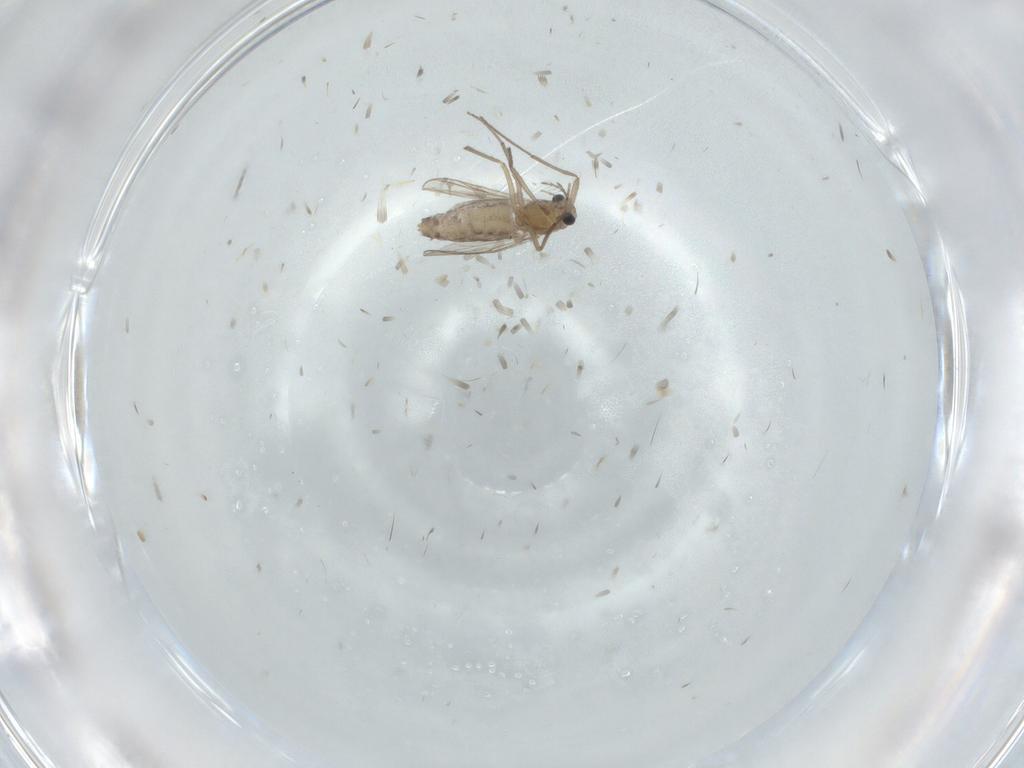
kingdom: Animalia
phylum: Arthropoda
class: Insecta
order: Diptera
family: Chironomidae
